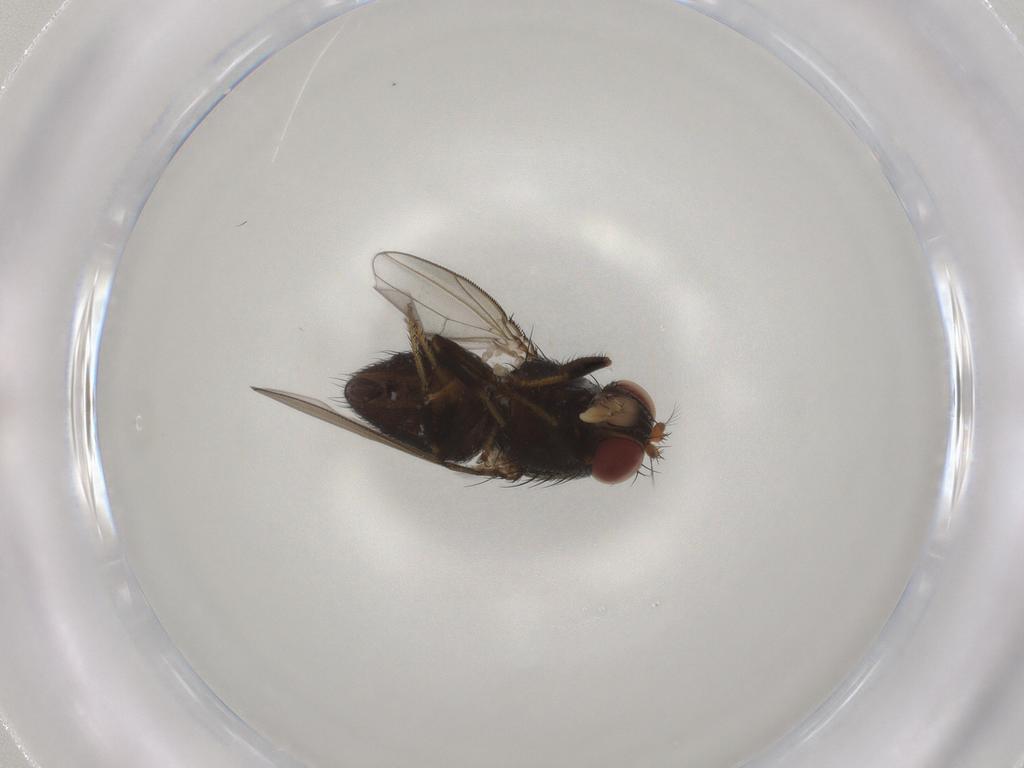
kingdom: Animalia
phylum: Arthropoda
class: Insecta
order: Diptera
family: Ephydridae
